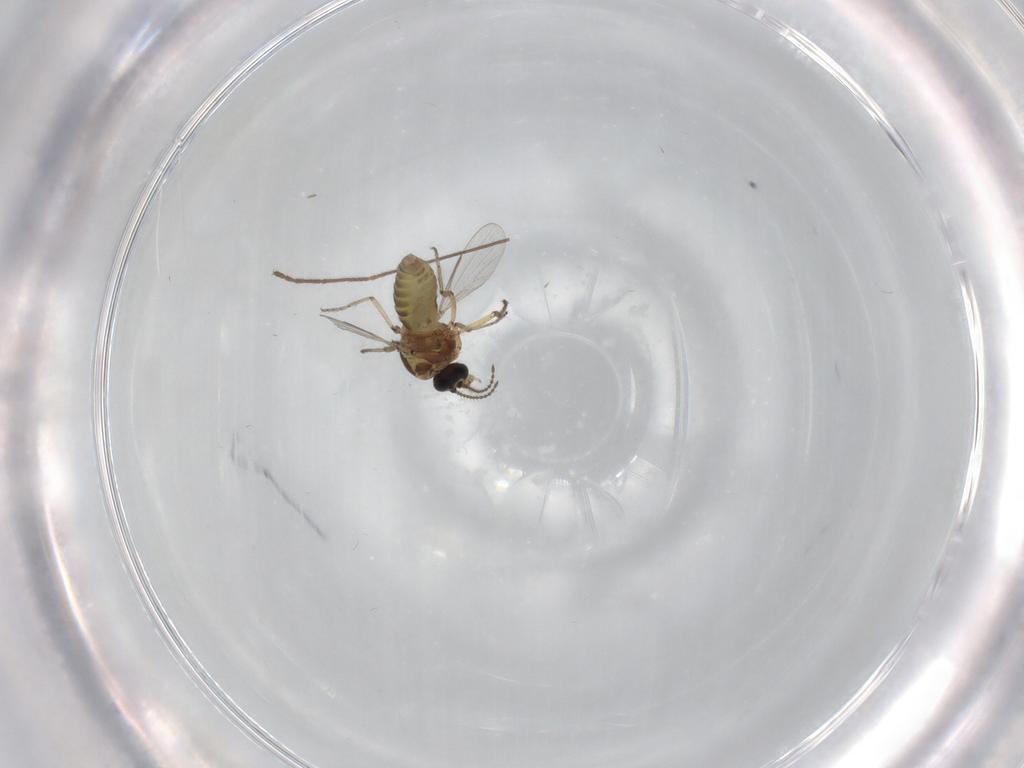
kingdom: Animalia
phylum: Arthropoda
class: Insecta
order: Diptera
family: Ceratopogonidae
